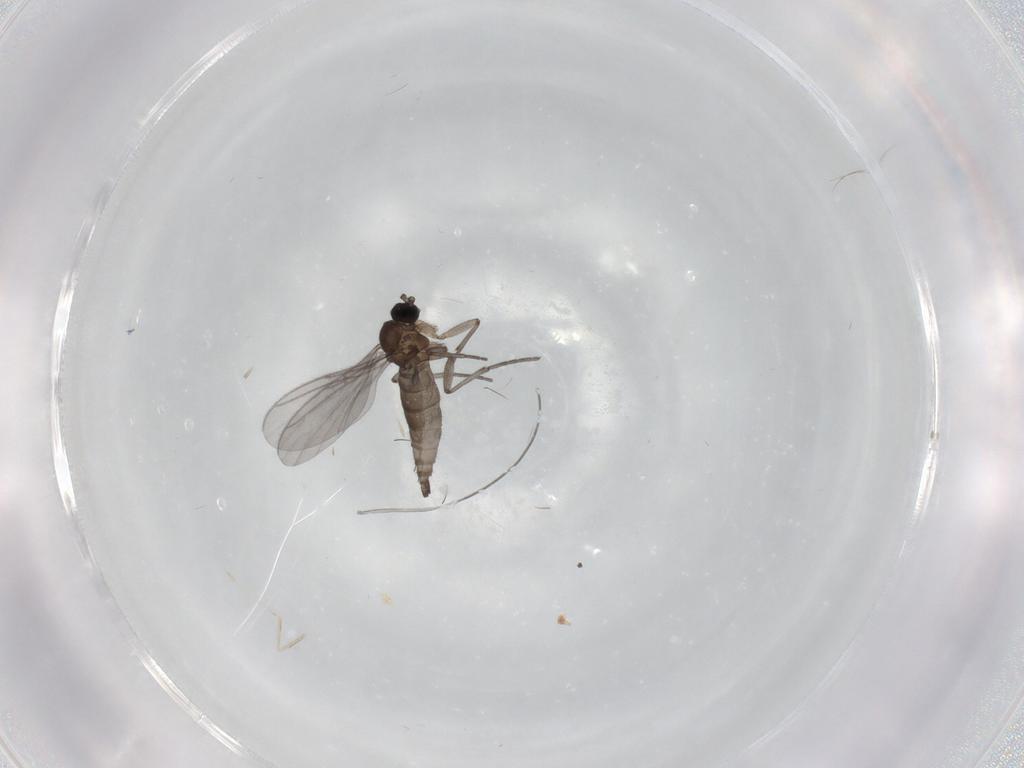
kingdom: Animalia
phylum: Arthropoda
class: Insecta
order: Diptera
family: Sciaridae
